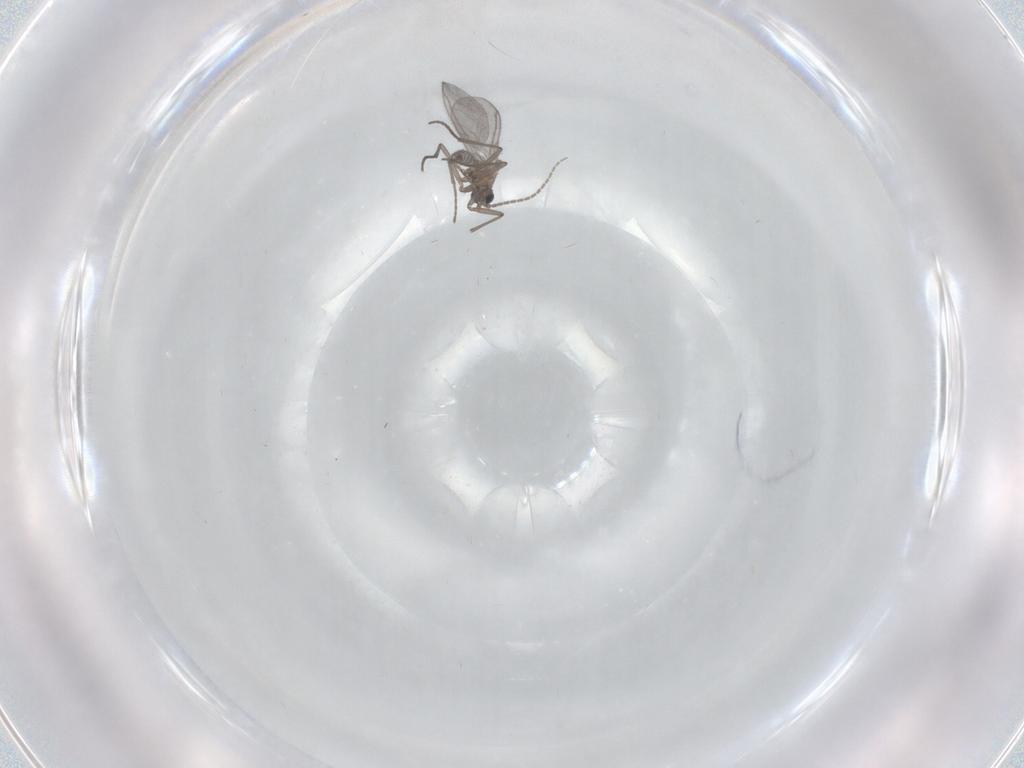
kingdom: Animalia
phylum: Arthropoda
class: Insecta
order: Diptera
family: Sciaridae
